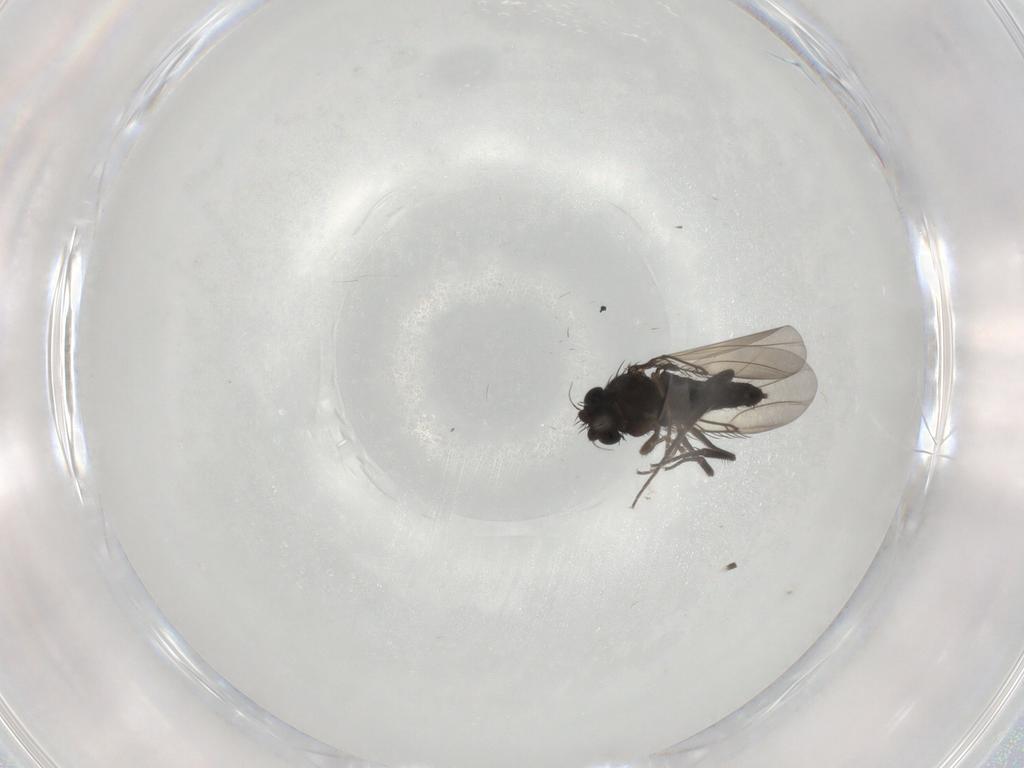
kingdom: Animalia
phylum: Arthropoda
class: Insecta
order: Diptera
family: Phoridae
